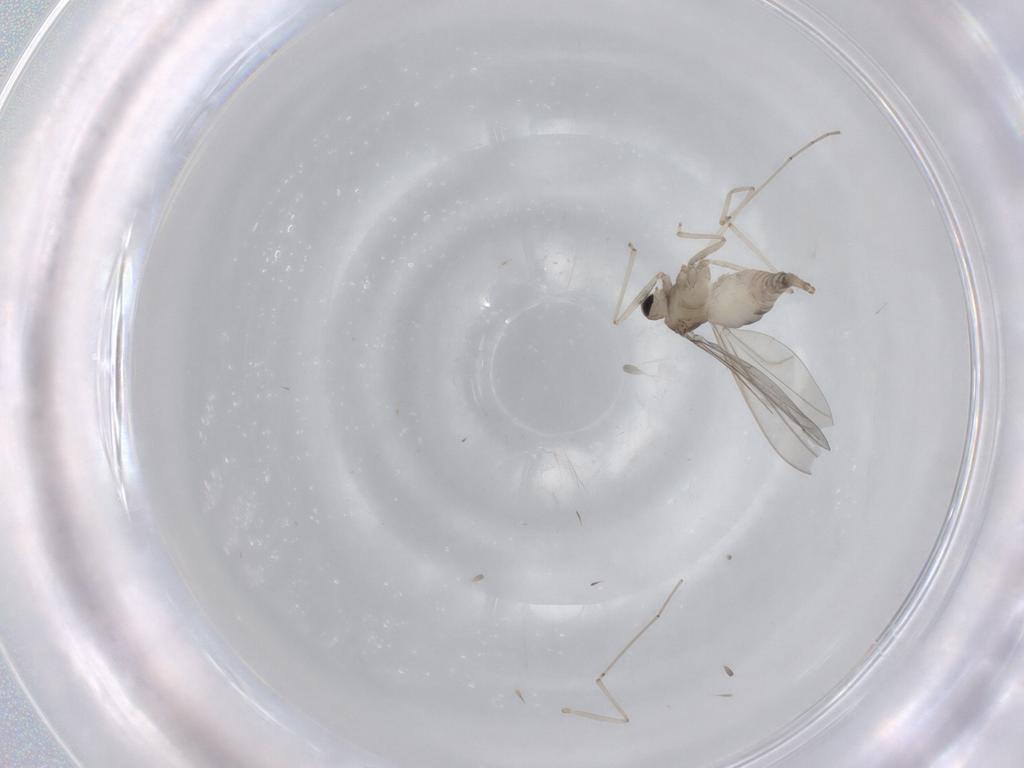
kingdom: Animalia
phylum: Arthropoda
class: Insecta
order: Diptera
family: Cecidomyiidae
